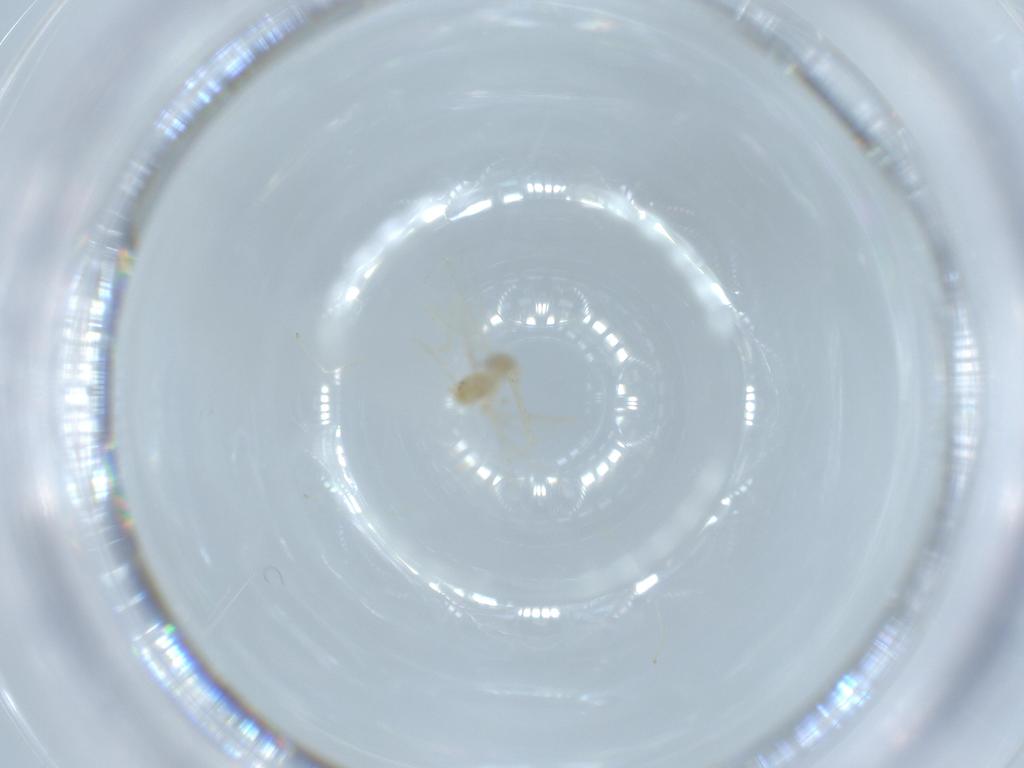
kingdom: Animalia
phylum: Arthropoda
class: Insecta
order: Diptera
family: Cecidomyiidae
